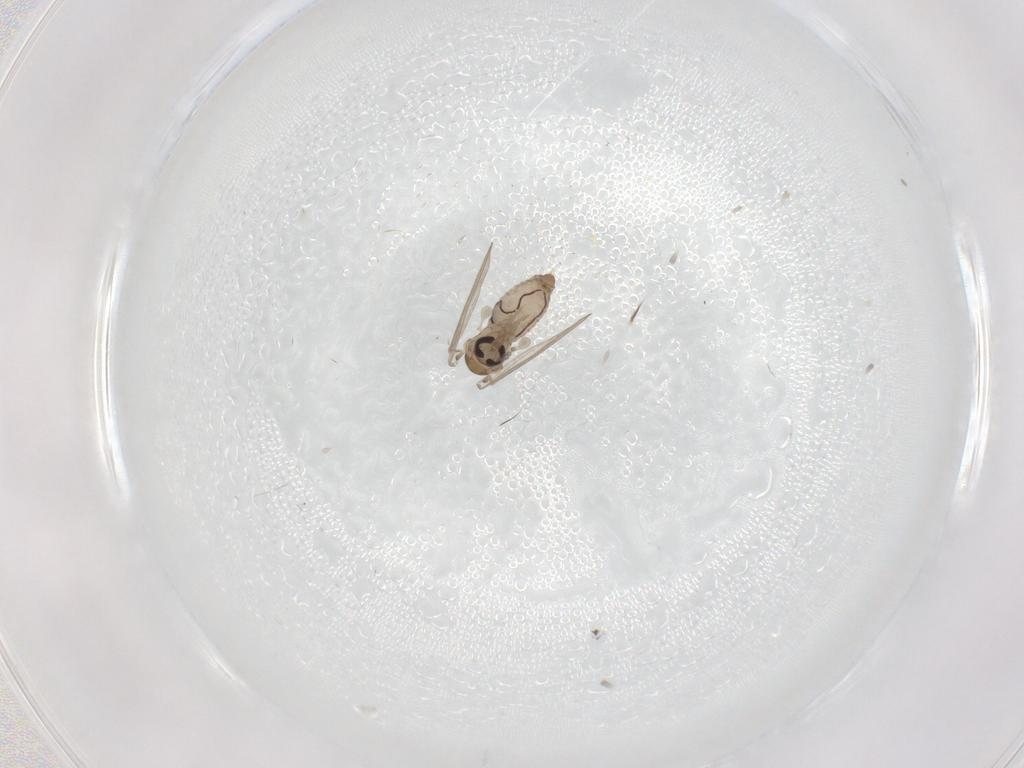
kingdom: Animalia
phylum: Arthropoda
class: Insecta
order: Diptera
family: Psychodidae
